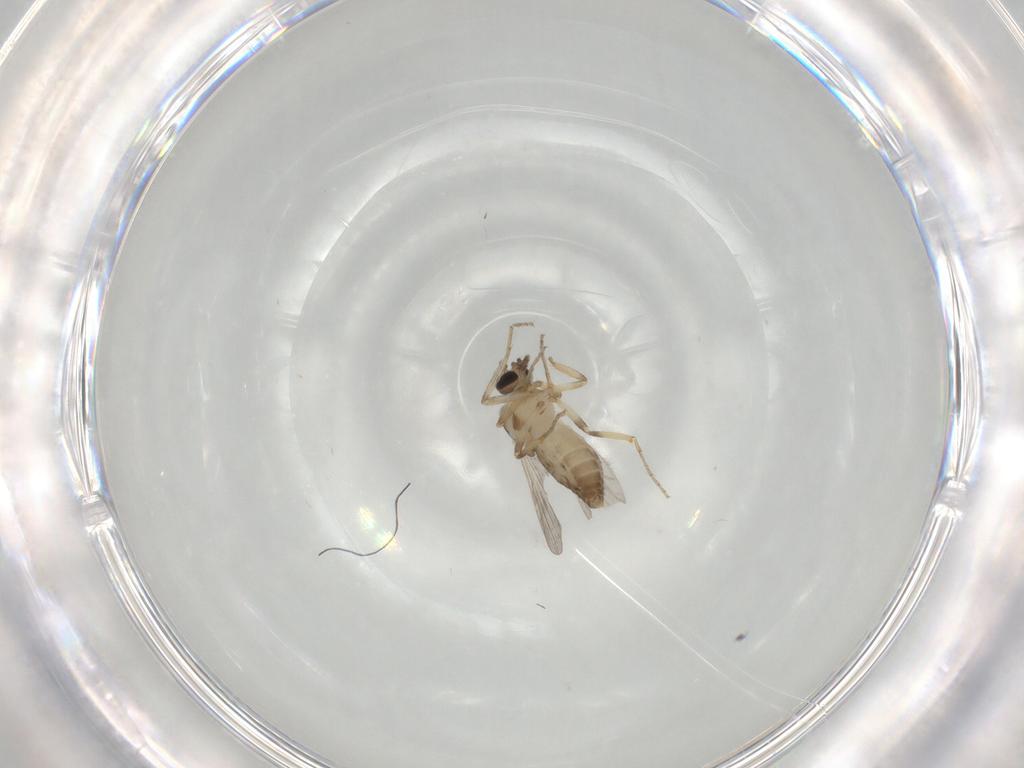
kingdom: Animalia
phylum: Arthropoda
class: Insecta
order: Diptera
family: Ceratopogonidae
